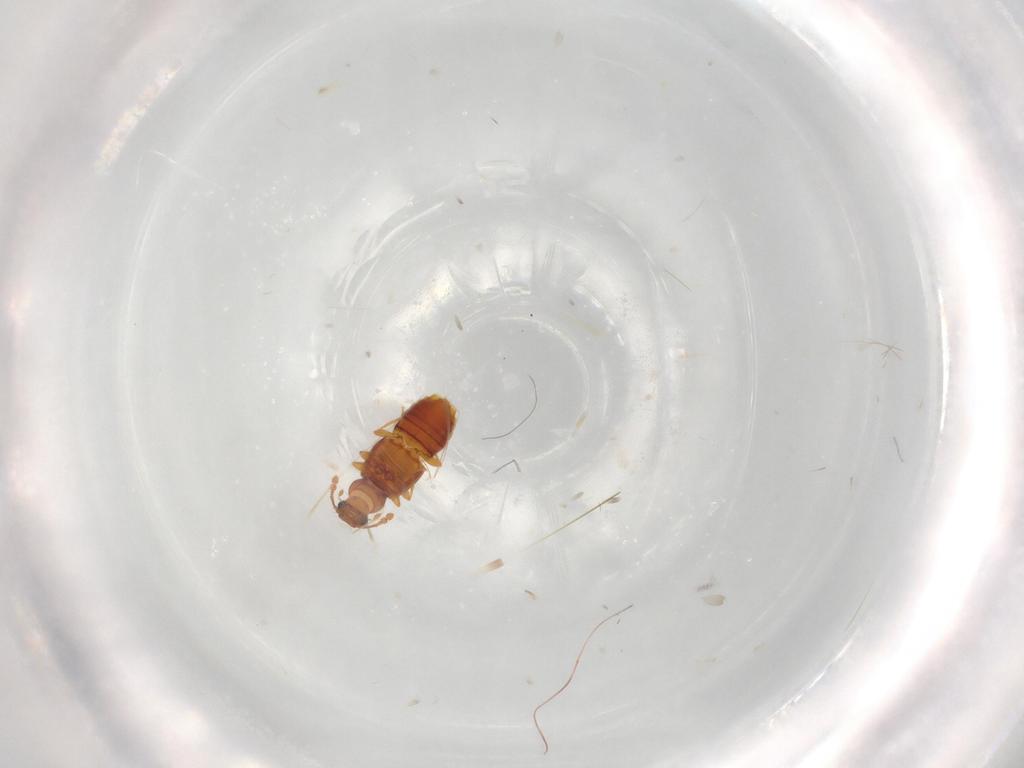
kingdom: Animalia
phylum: Arthropoda
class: Insecta
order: Coleoptera
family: Staphylinidae
